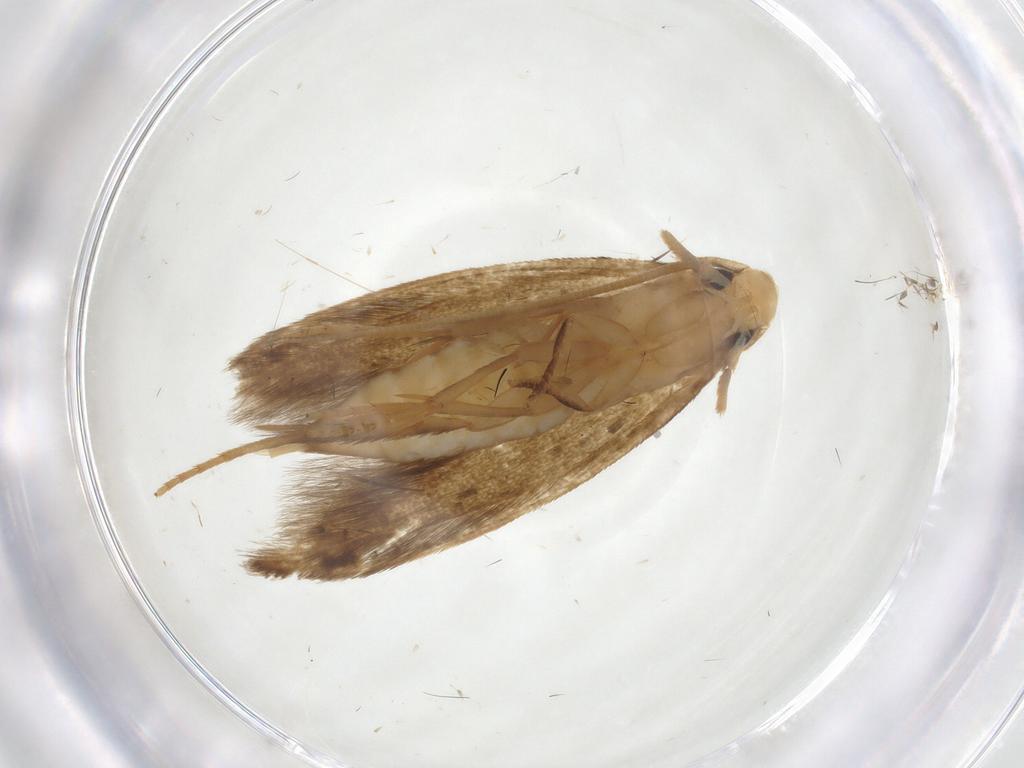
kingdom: Animalia
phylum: Arthropoda
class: Insecta
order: Lepidoptera
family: Tineidae
